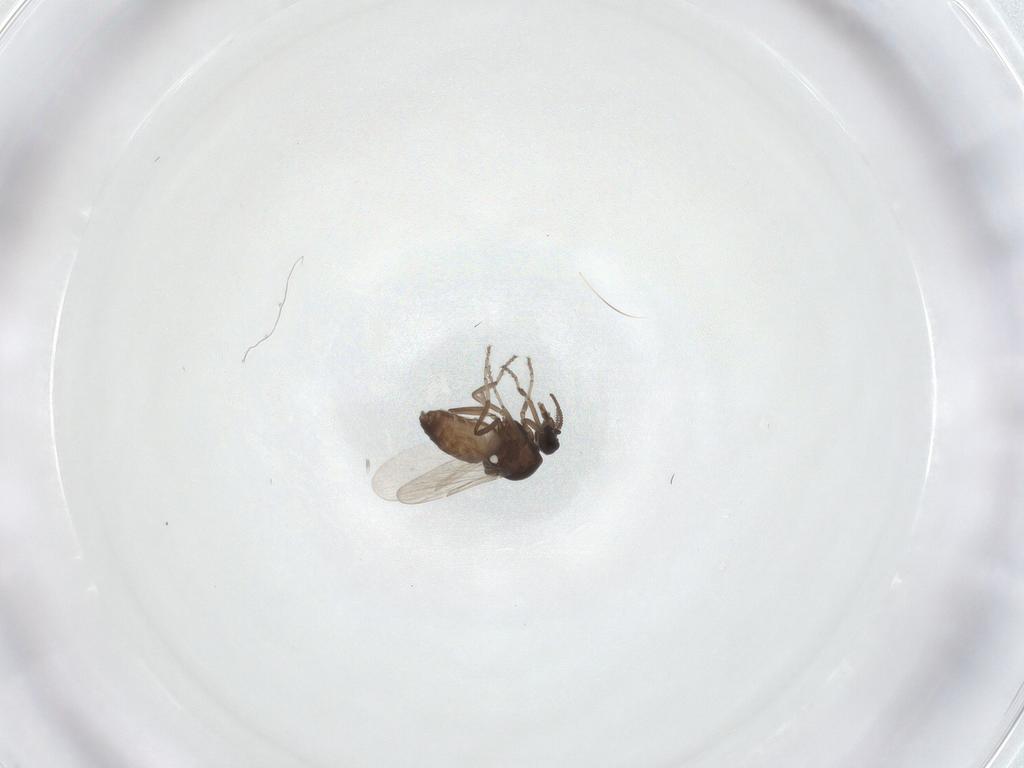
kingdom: Animalia
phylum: Arthropoda
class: Insecta
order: Diptera
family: Ceratopogonidae
